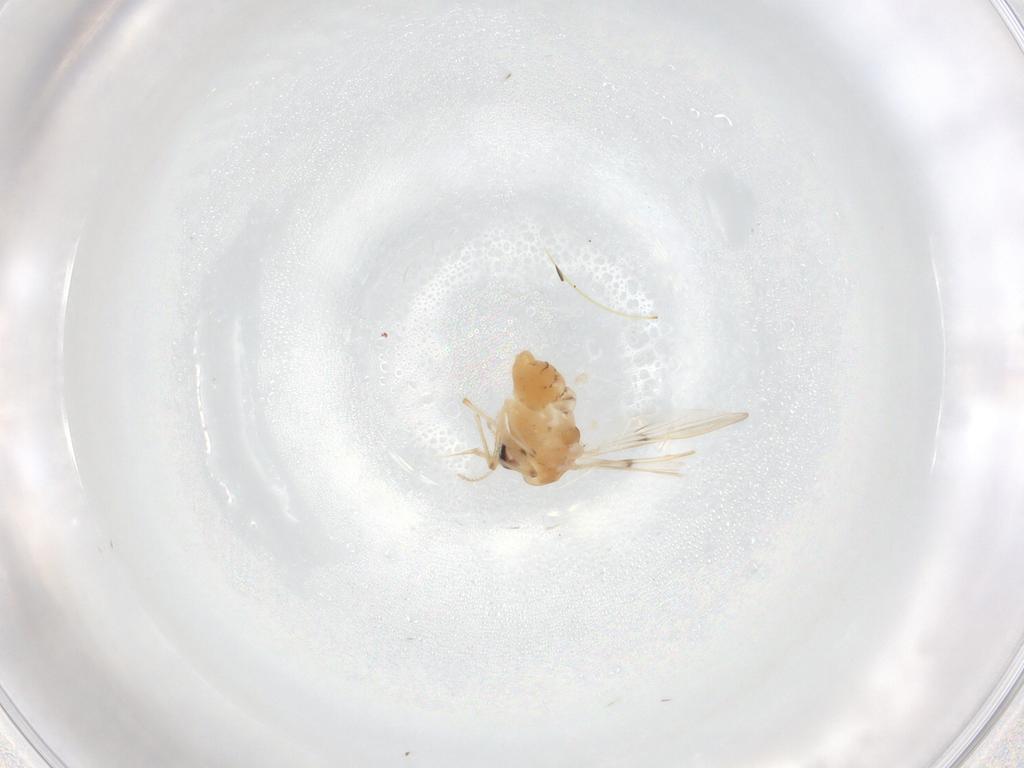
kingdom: Animalia
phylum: Arthropoda
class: Insecta
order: Diptera
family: Chironomidae
